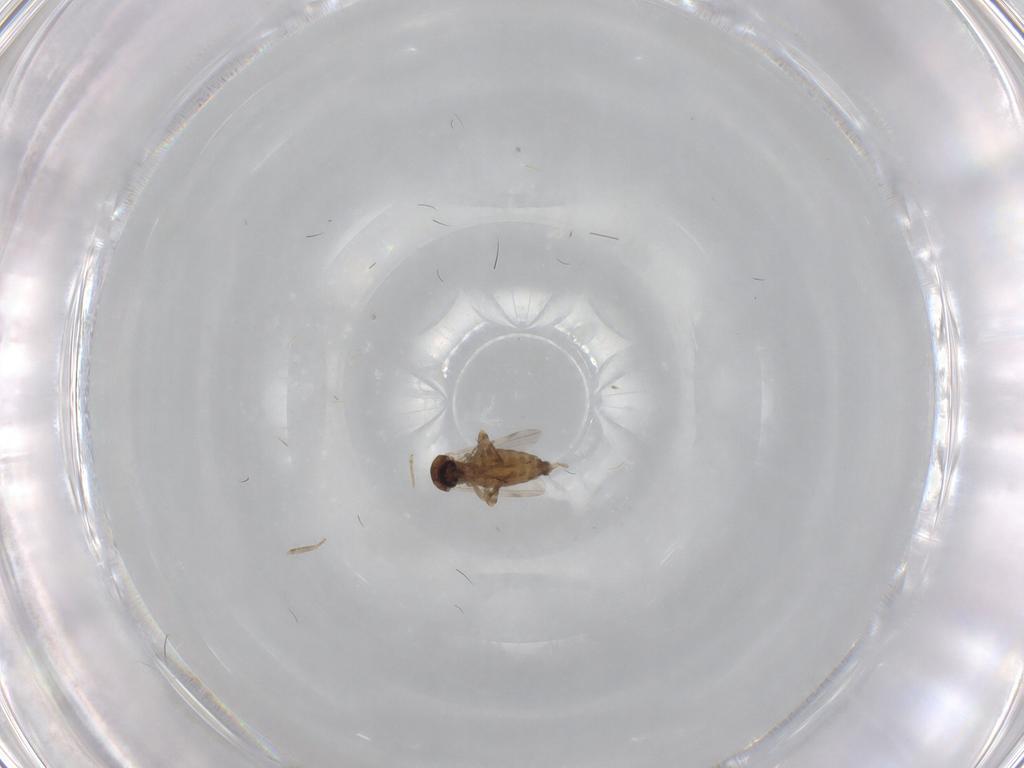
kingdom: Animalia
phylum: Arthropoda
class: Insecta
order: Diptera
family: Ceratopogonidae
